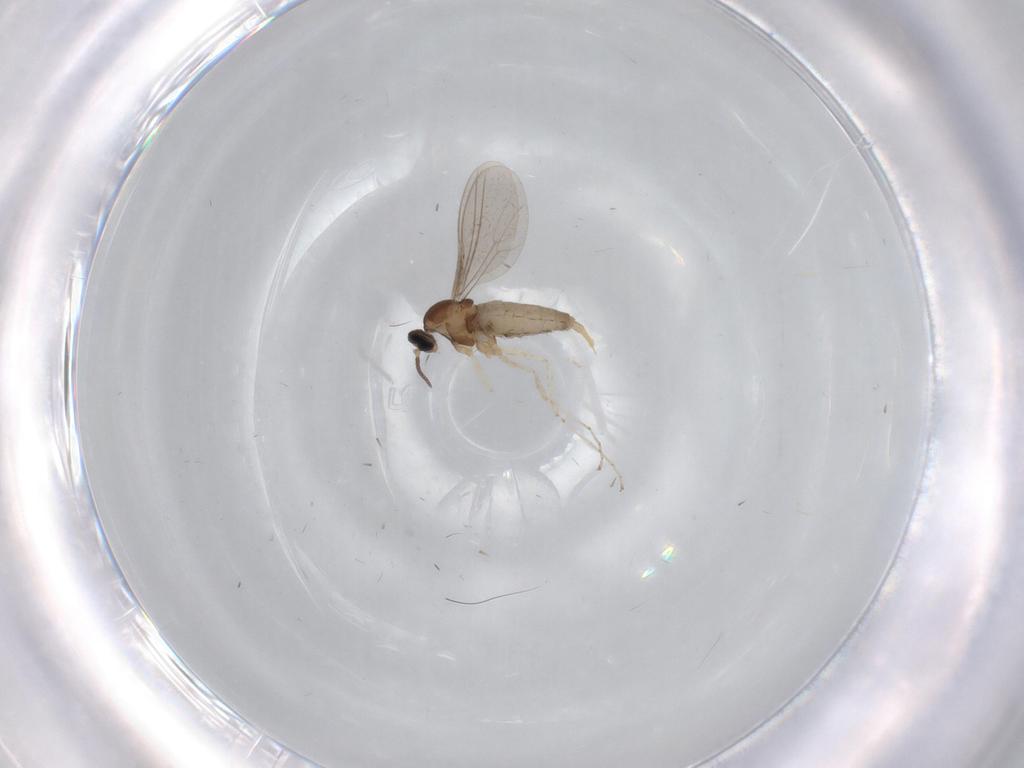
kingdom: Animalia
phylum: Arthropoda
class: Insecta
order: Diptera
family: Cecidomyiidae
